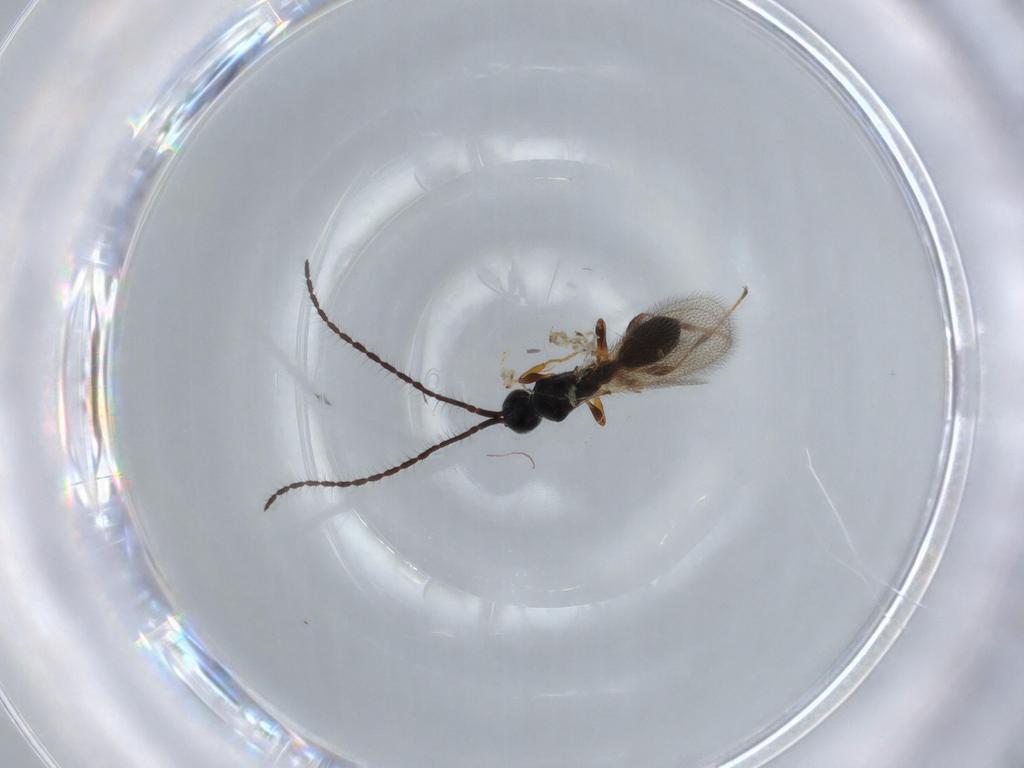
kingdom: Animalia
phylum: Arthropoda
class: Insecta
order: Hymenoptera
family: Diapriidae
